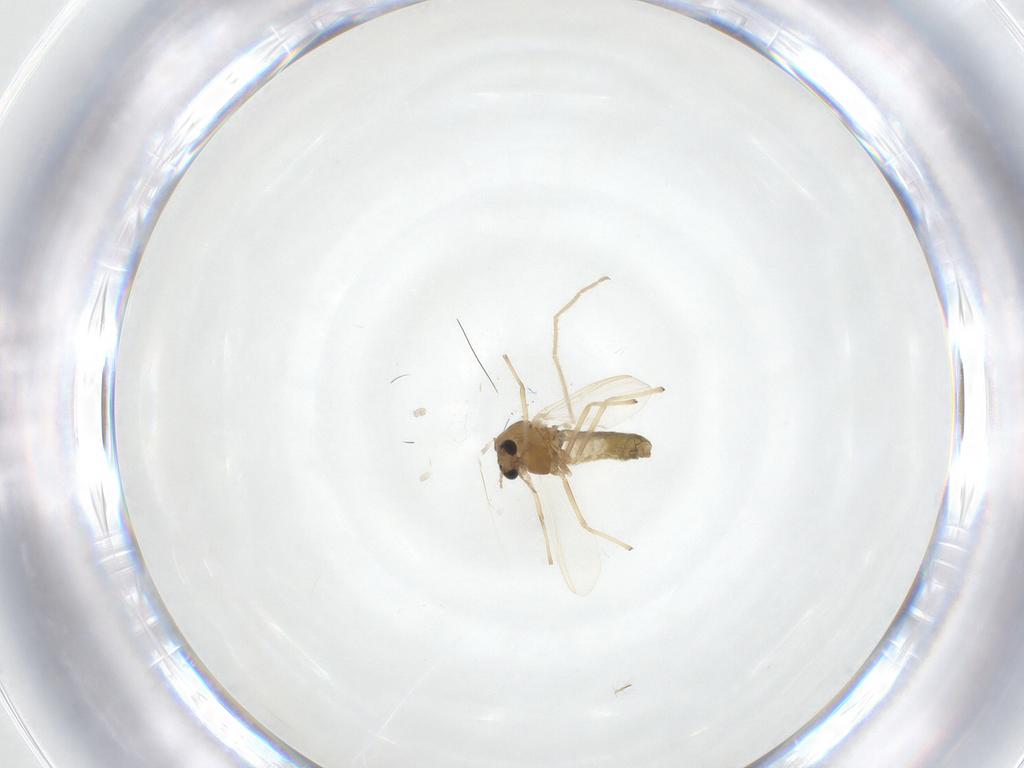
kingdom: Animalia
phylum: Arthropoda
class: Insecta
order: Diptera
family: Chironomidae
